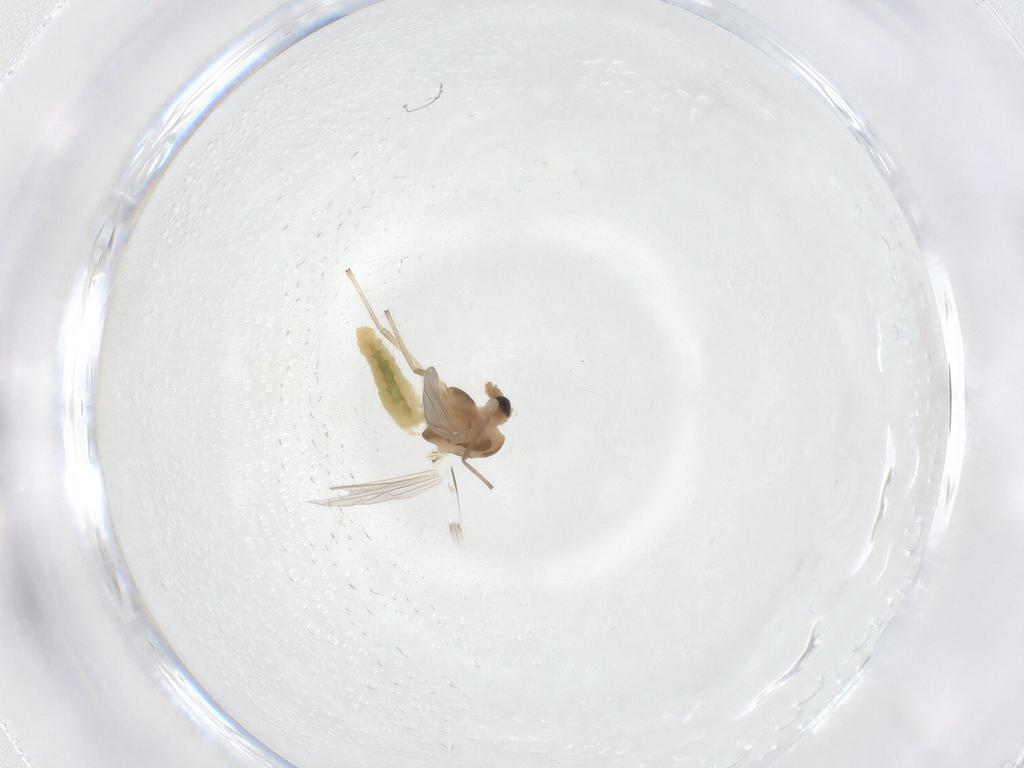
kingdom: Animalia
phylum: Arthropoda
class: Insecta
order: Diptera
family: Chironomidae
